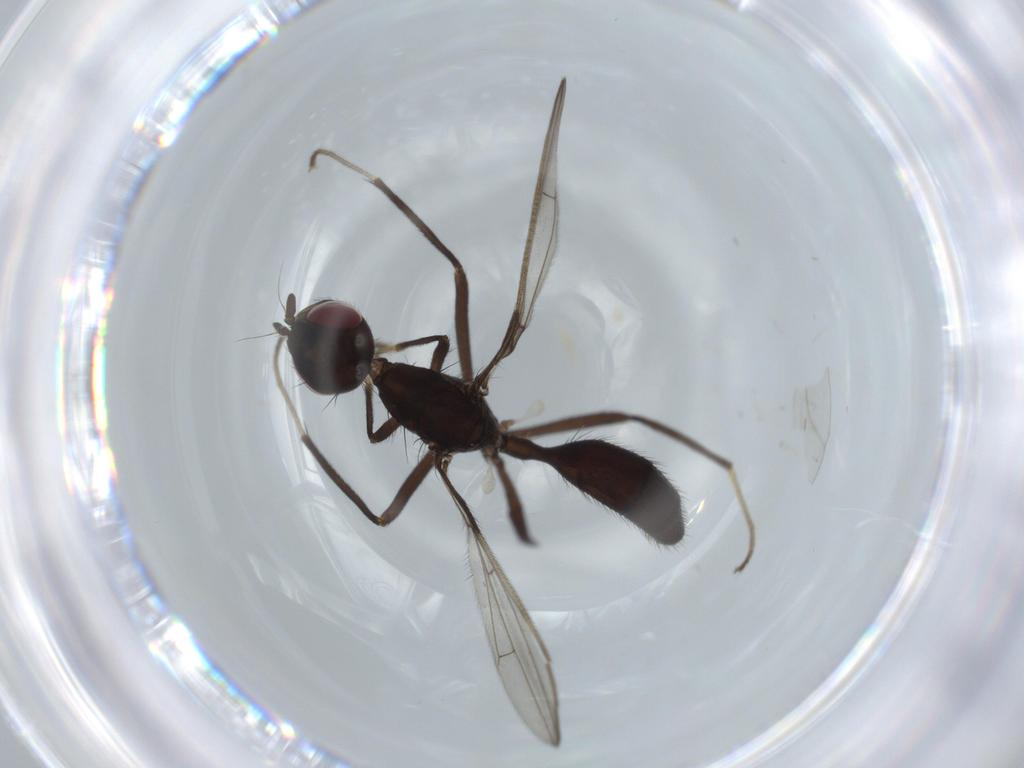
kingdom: Animalia
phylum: Arthropoda
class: Insecta
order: Diptera
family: Richardiidae
